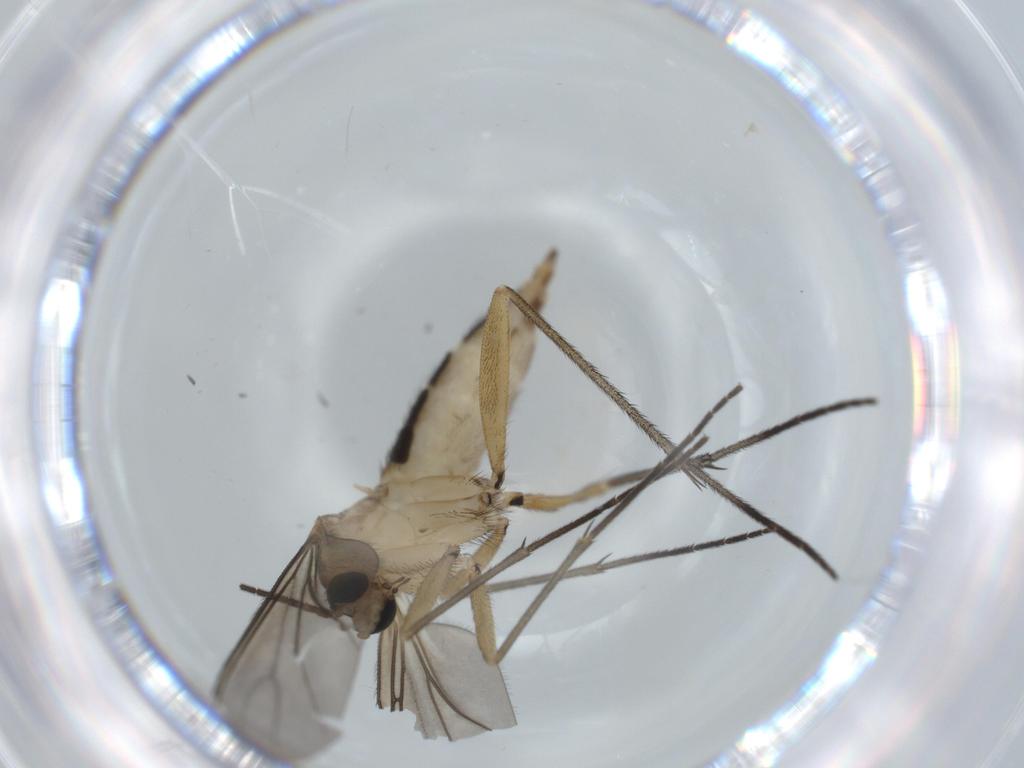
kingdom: Animalia
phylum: Arthropoda
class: Insecta
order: Diptera
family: Sciaridae
